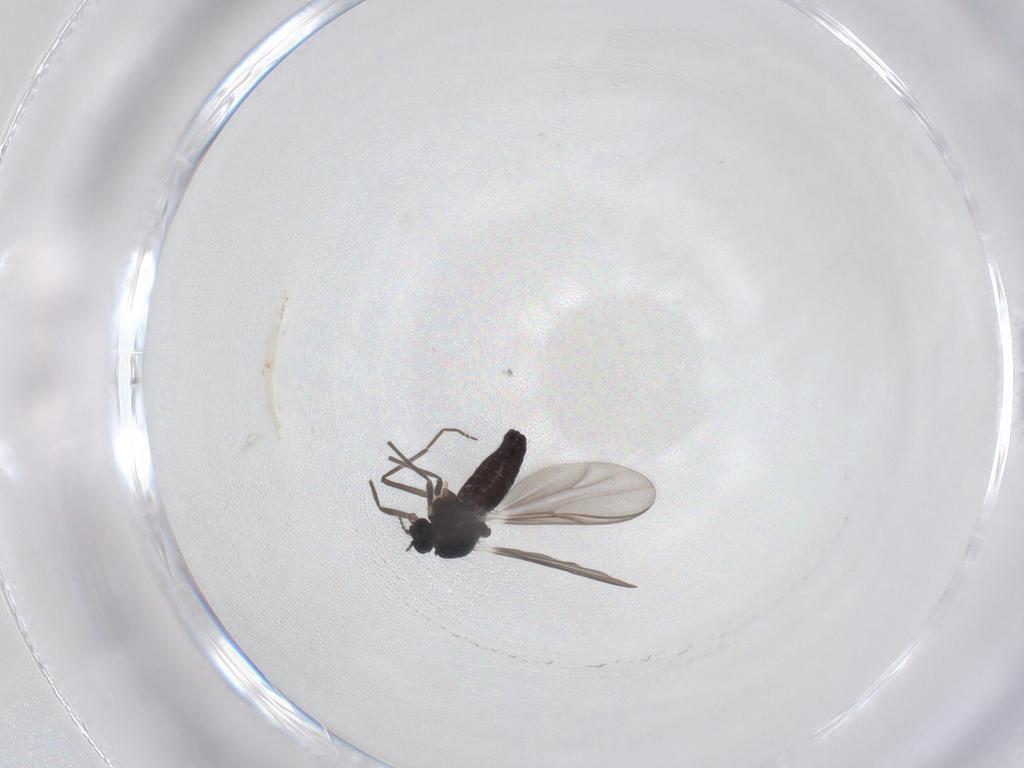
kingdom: Animalia
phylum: Arthropoda
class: Insecta
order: Diptera
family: Chironomidae
